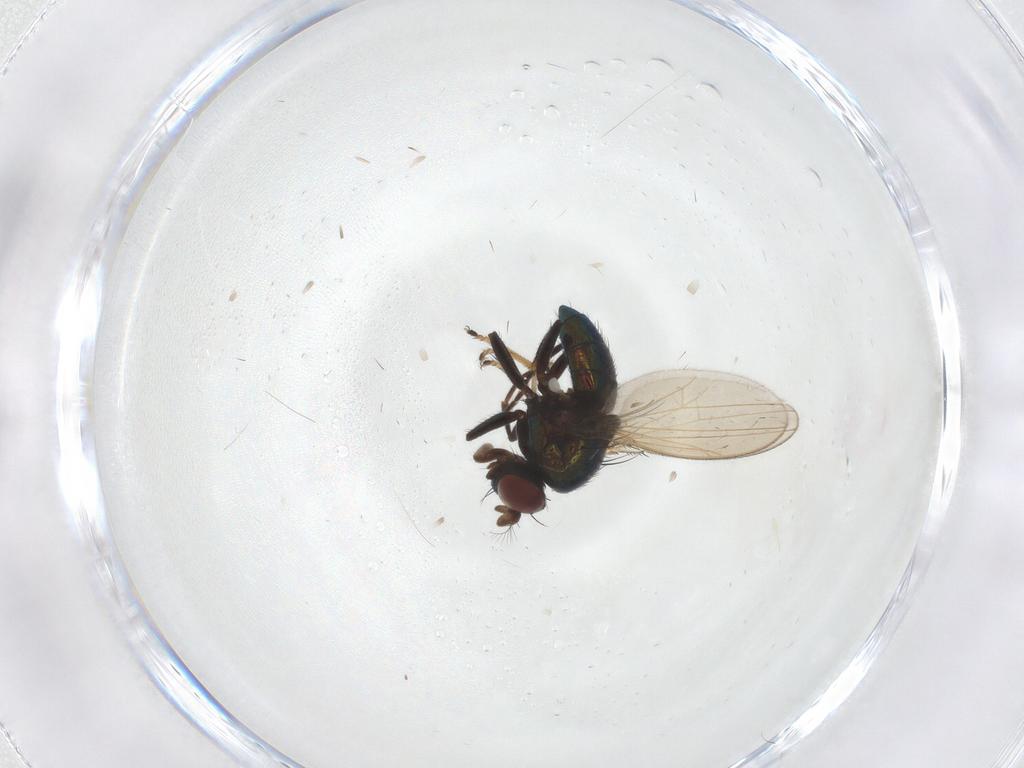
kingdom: Animalia
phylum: Arthropoda
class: Insecta
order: Diptera
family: Ephydridae
